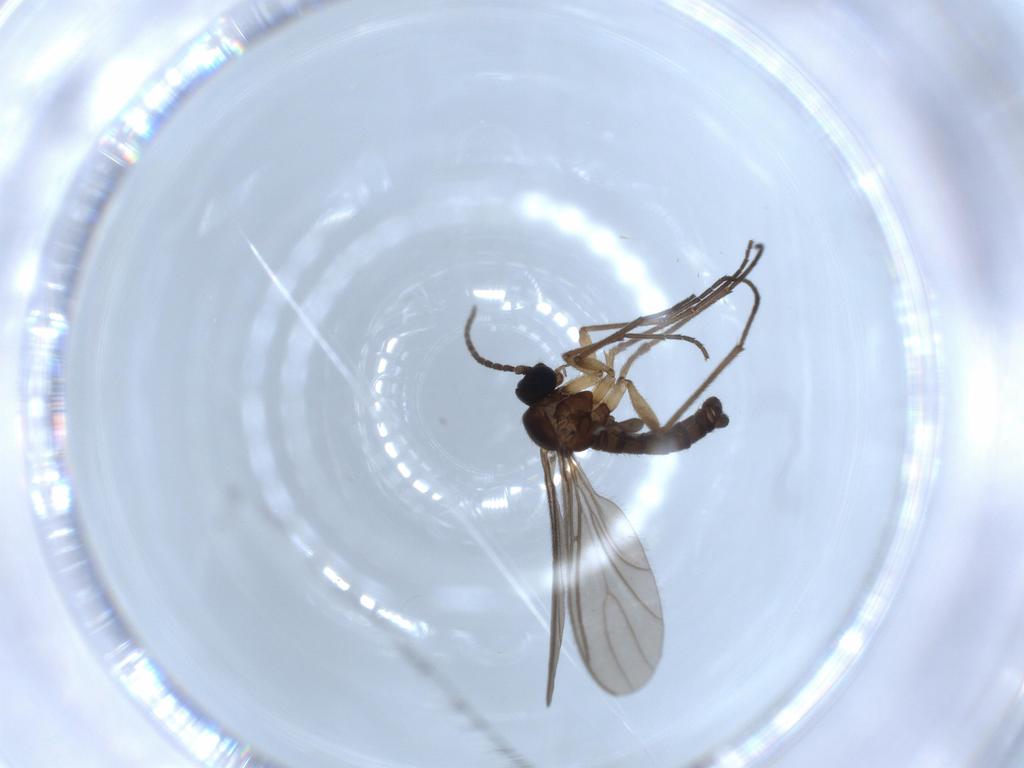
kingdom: Animalia
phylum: Arthropoda
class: Insecta
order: Diptera
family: Sciaridae
